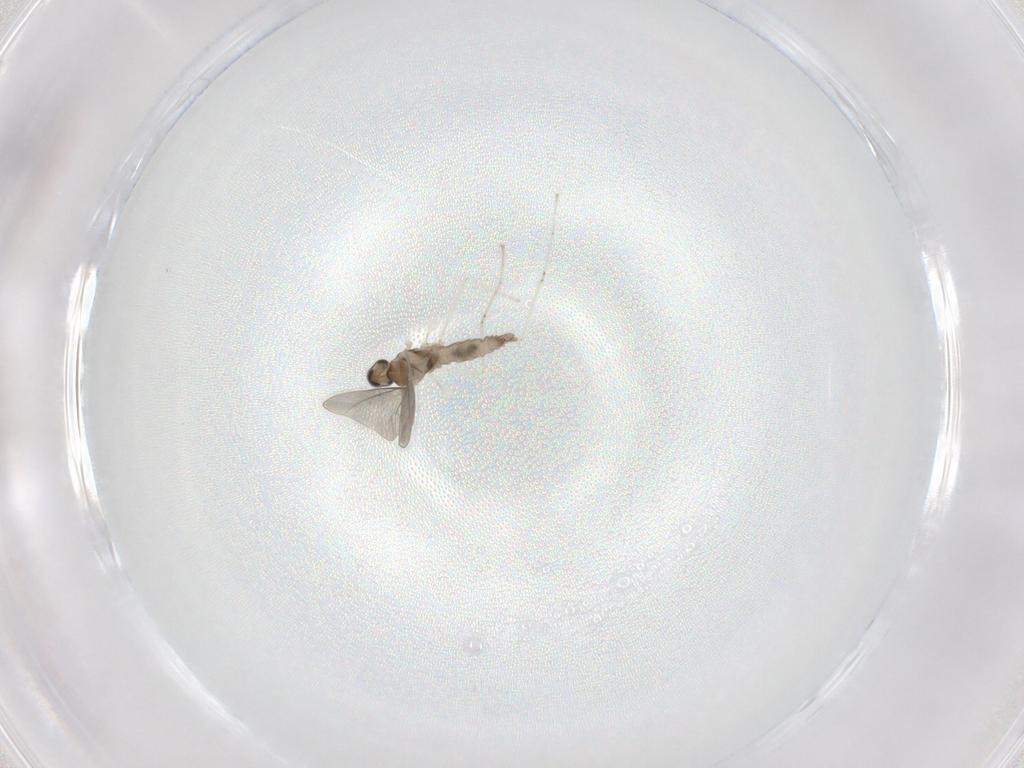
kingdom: Animalia
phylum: Arthropoda
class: Insecta
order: Diptera
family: Cecidomyiidae
